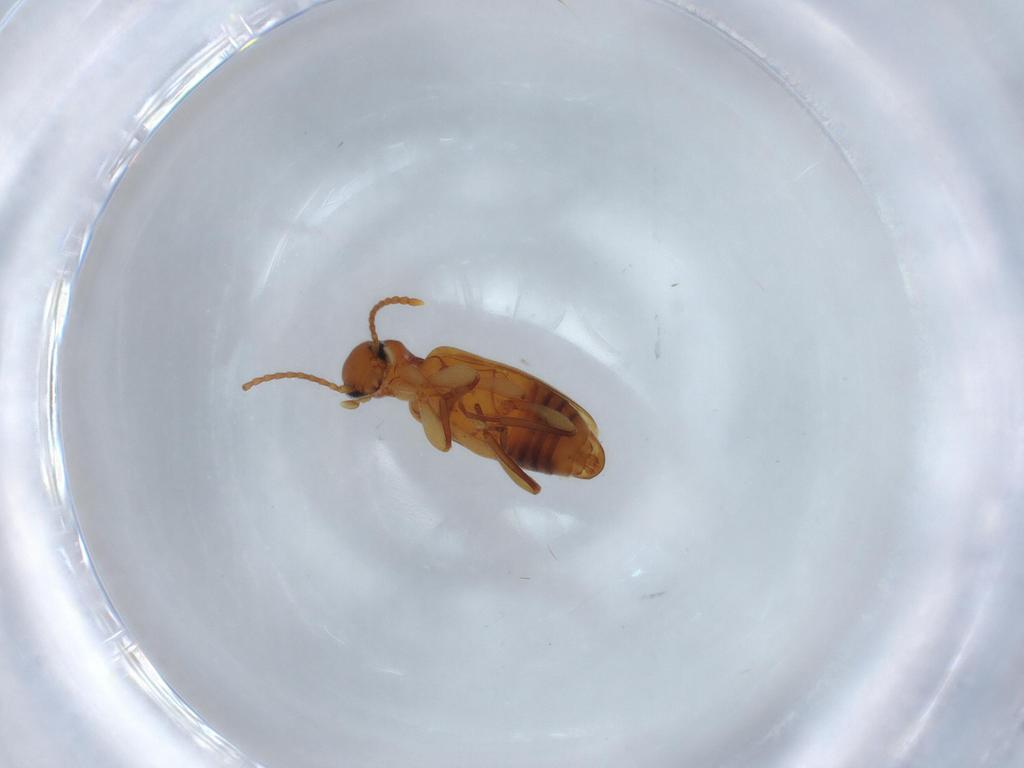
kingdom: Animalia
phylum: Arthropoda
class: Insecta
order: Coleoptera
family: Anthicidae
